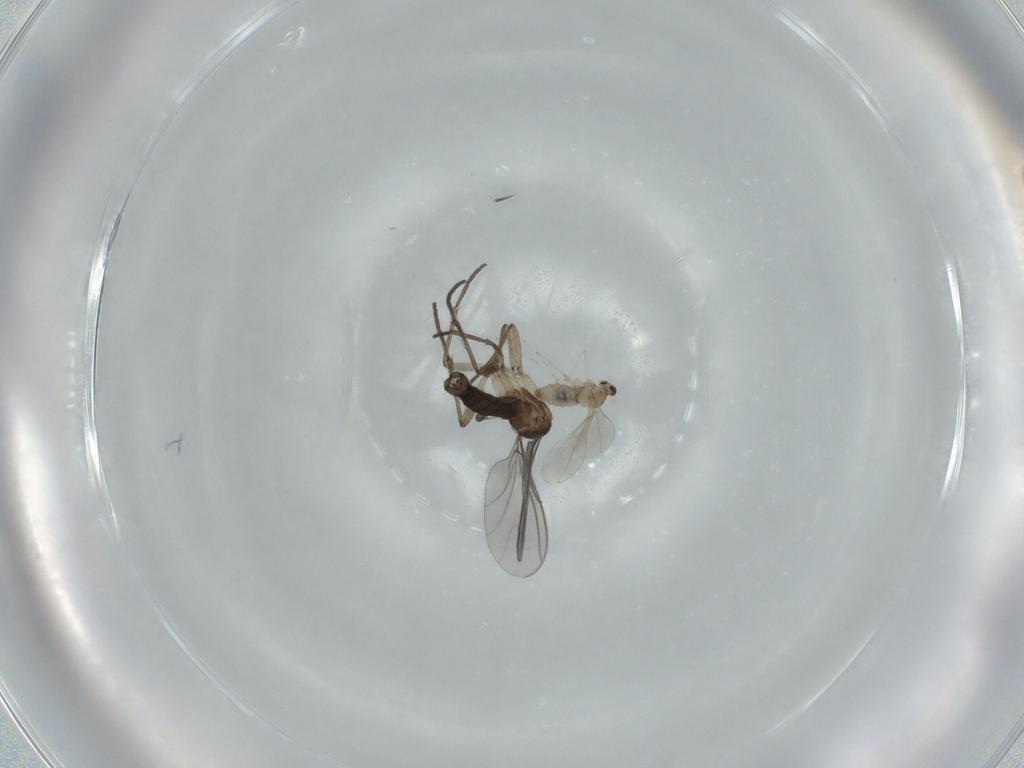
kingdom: Animalia
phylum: Arthropoda
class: Insecta
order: Diptera
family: Sciaridae
